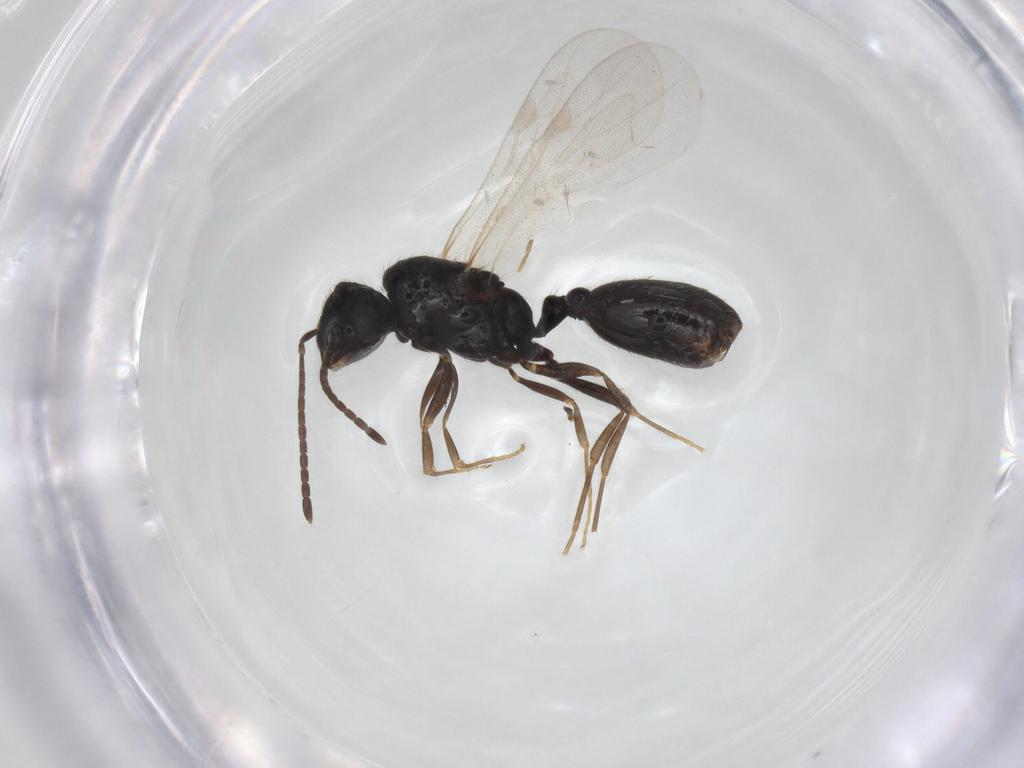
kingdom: Animalia
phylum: Arthropoda
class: Insecta
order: Hymenoptera
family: Formicidae
